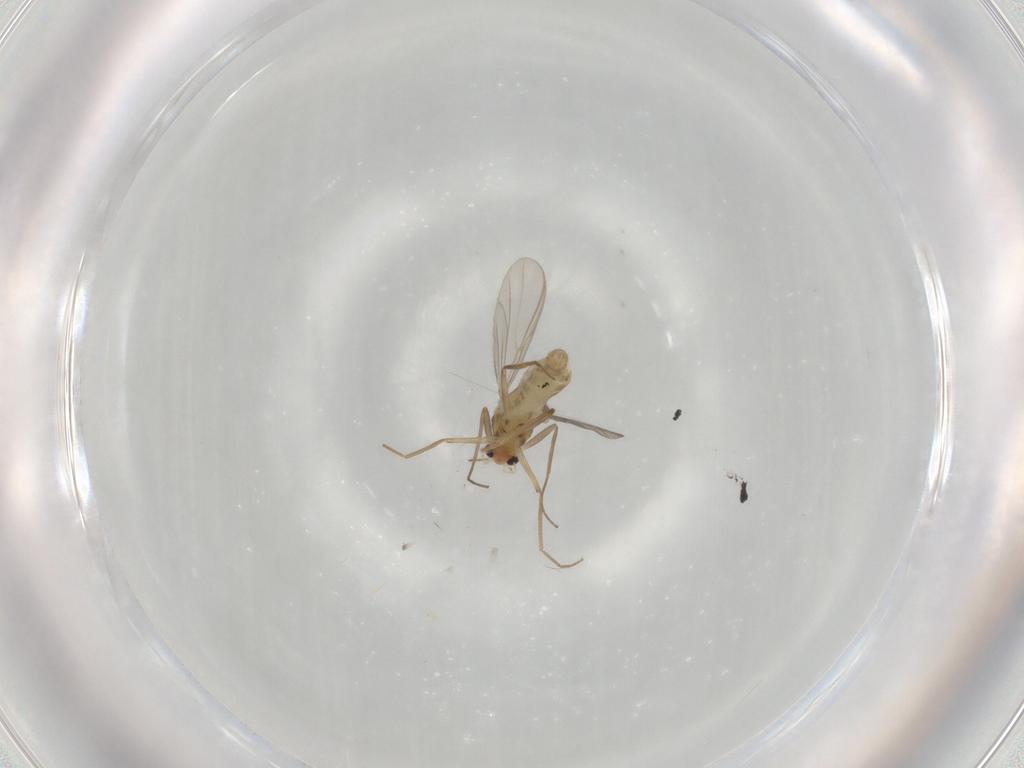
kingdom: Animalia
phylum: Arthropoda
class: Insecta
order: Diptera
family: Chironomidae
